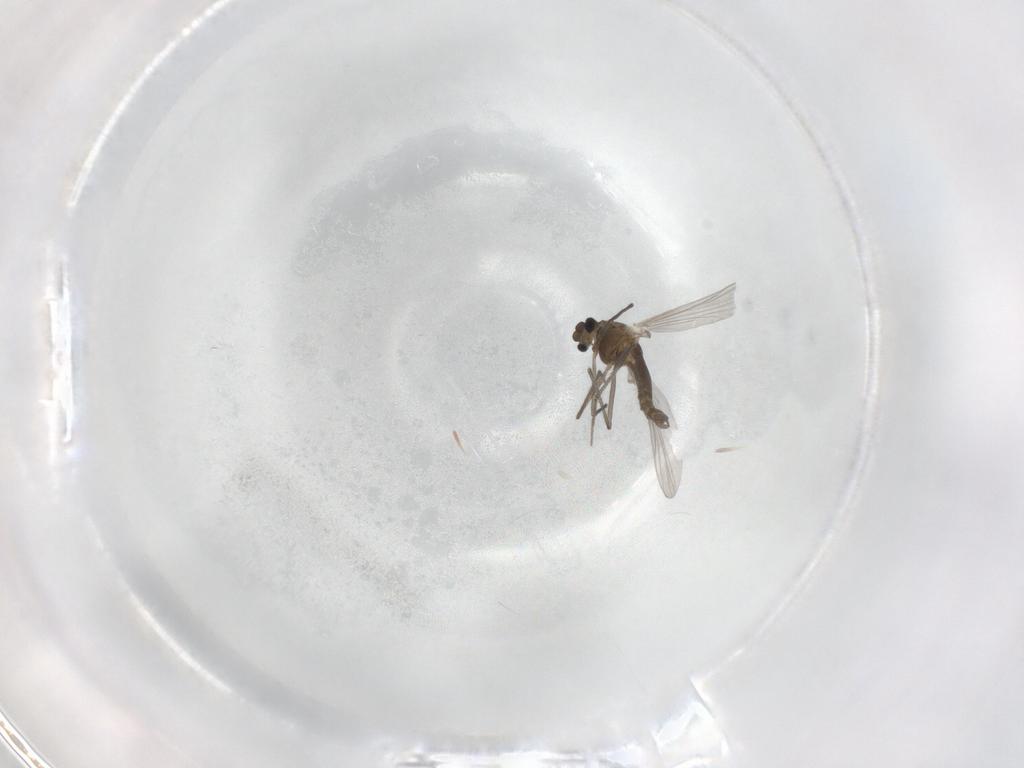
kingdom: Animalia
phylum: Arthropoda
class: Insecta
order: Diptera
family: Chironomidae
